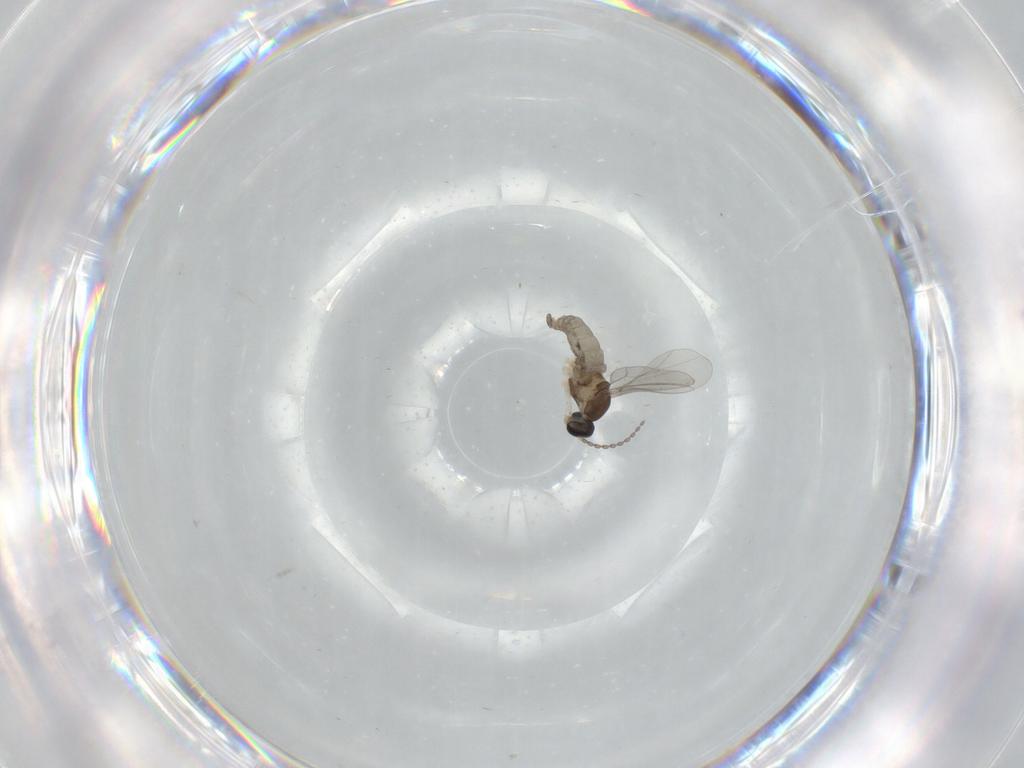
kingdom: Animalia
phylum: Arthropoda
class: Insecta
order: Diptera
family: Cecidomyiidae
